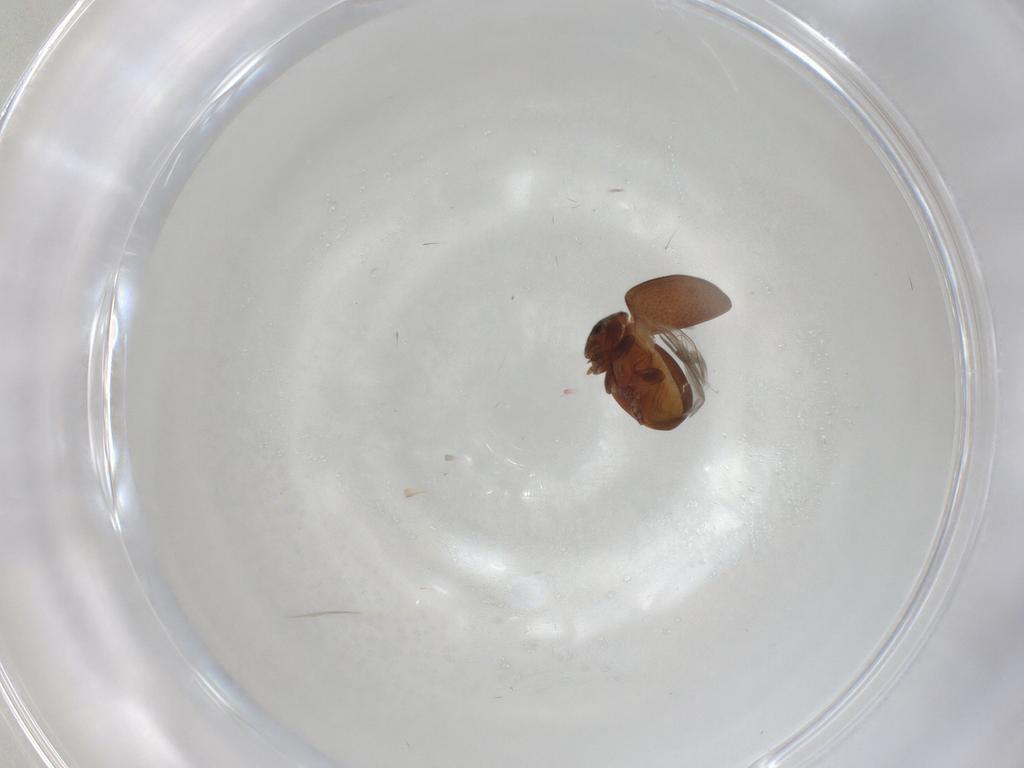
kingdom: Animalia
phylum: Arthropoda
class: Insecta
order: Coleoptera
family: Coccinellidae
